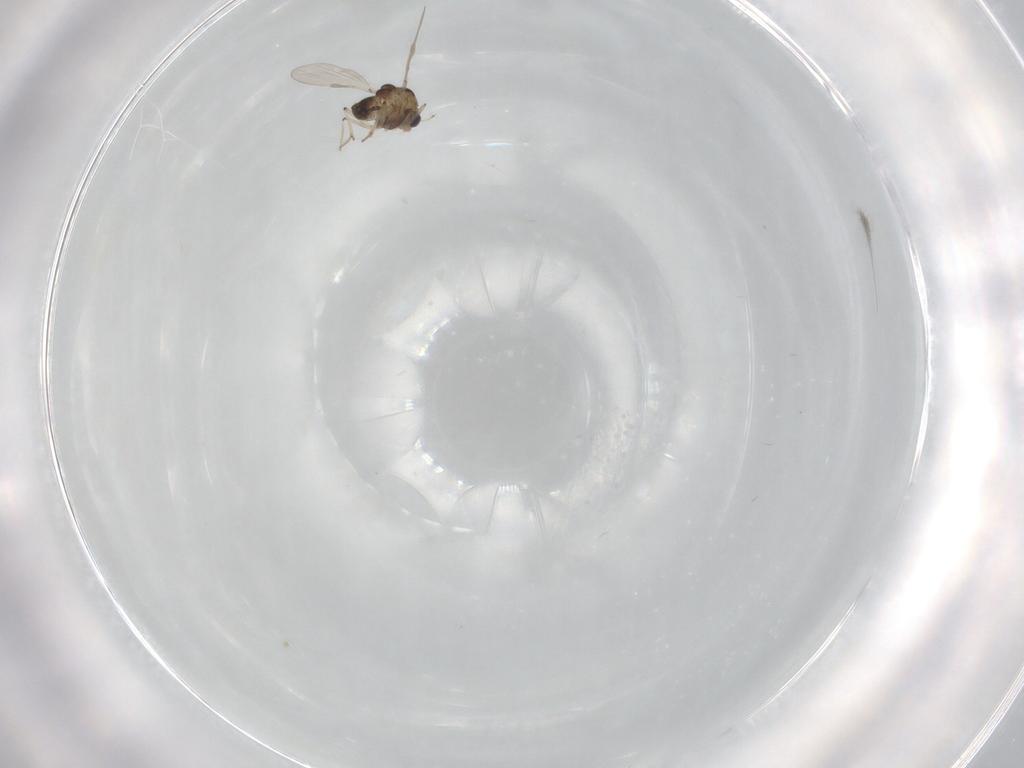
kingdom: Animalia
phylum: Arthropoda
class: Insecta
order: Diptera
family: Chironomidae
